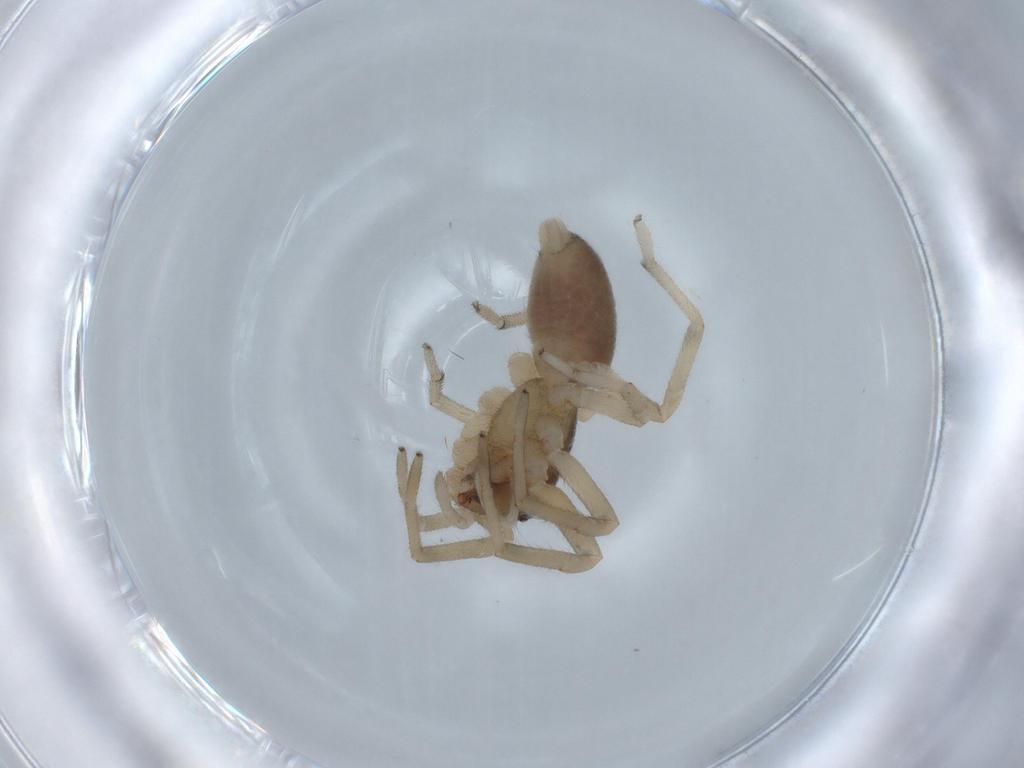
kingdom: Animalia
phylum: Arthropoda
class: Arachnida
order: Araneae
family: Trachelidae
